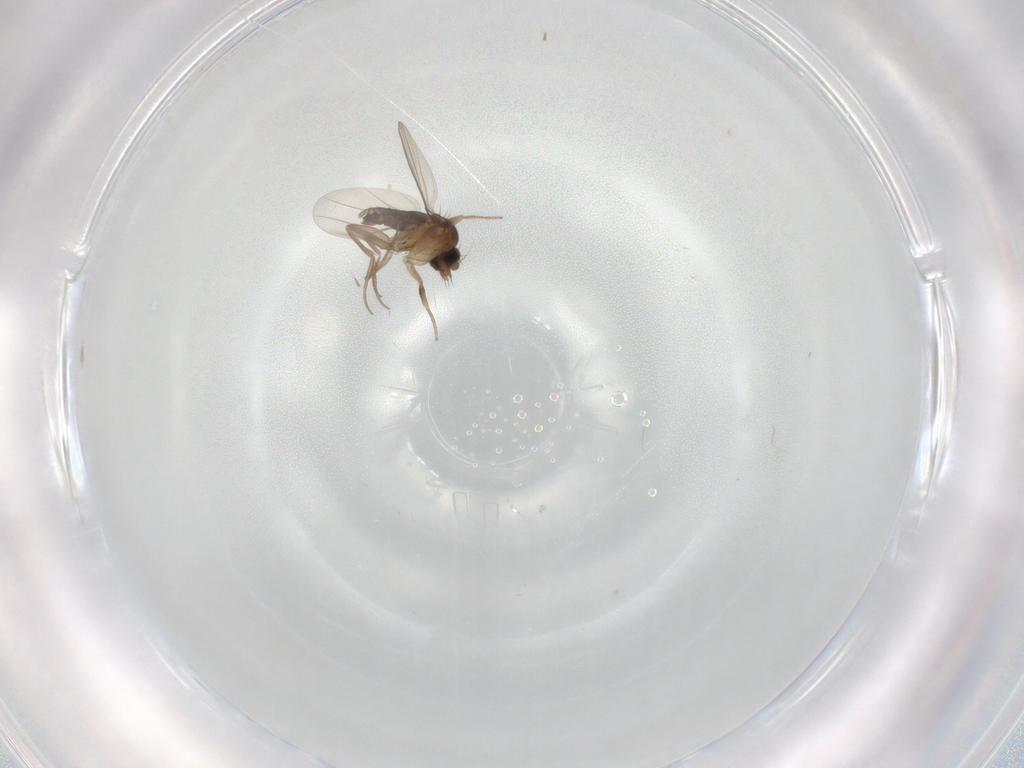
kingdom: Animalia
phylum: Arthropoda
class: Insecta
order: Diptera
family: Phoridae
